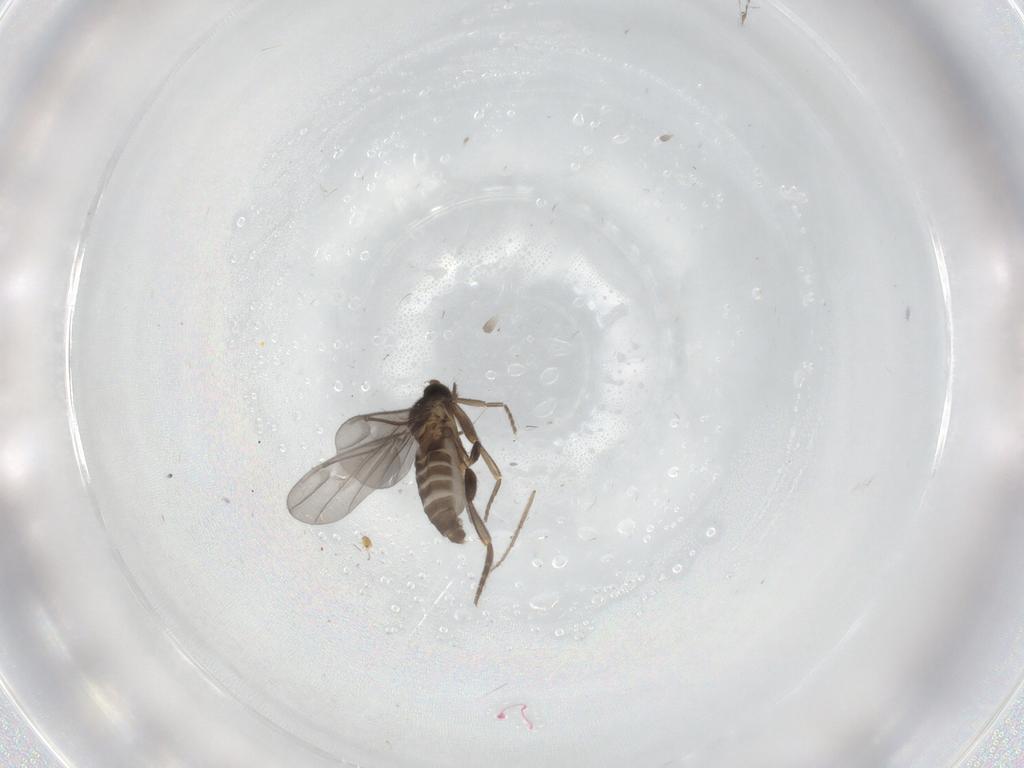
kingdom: Animalia
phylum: Arthropoda
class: Insecta
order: Diptera
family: Chironomidae
